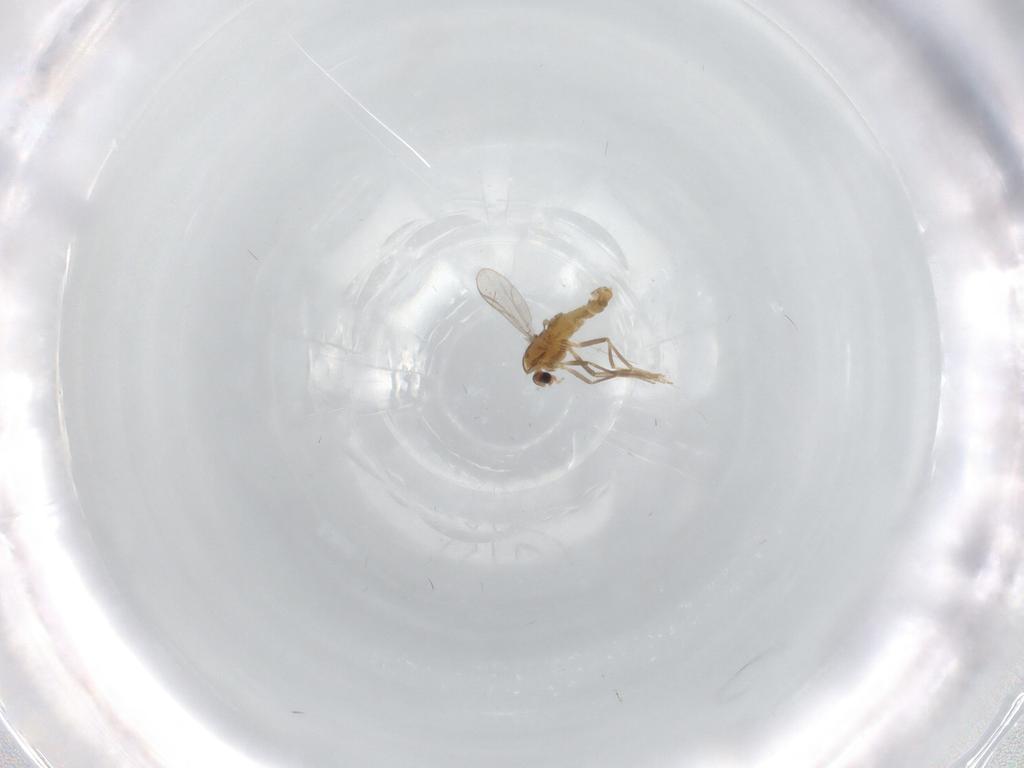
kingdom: Animalia
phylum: Arthropoda
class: Insecta
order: Diptera
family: Chironomidae
